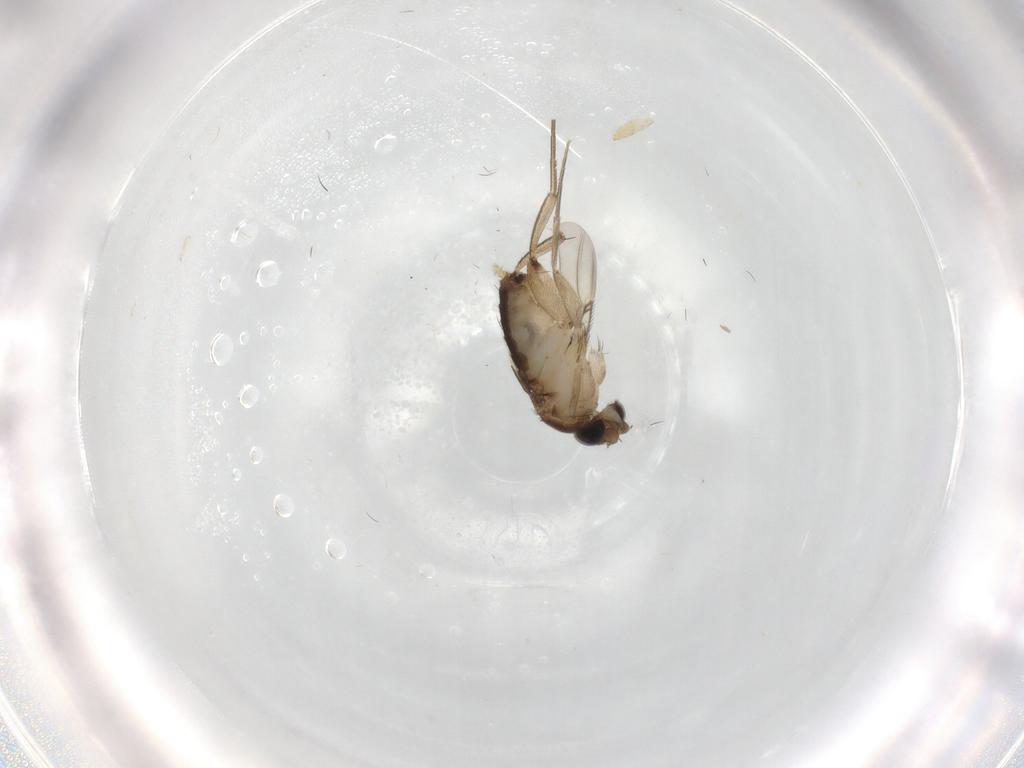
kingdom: Animalia
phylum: Arthropoda
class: Insecta
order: Diptera
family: Phoridae
